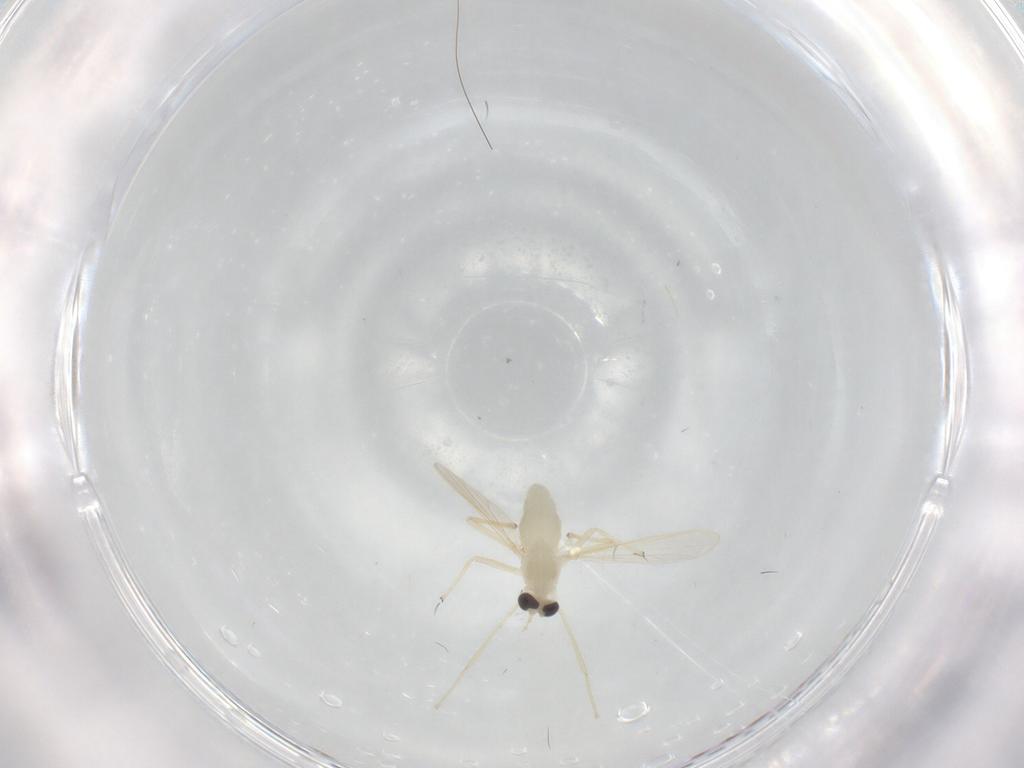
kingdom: Animalia
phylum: Arthropoda
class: Insecta
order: Diptera
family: Chironomidae
